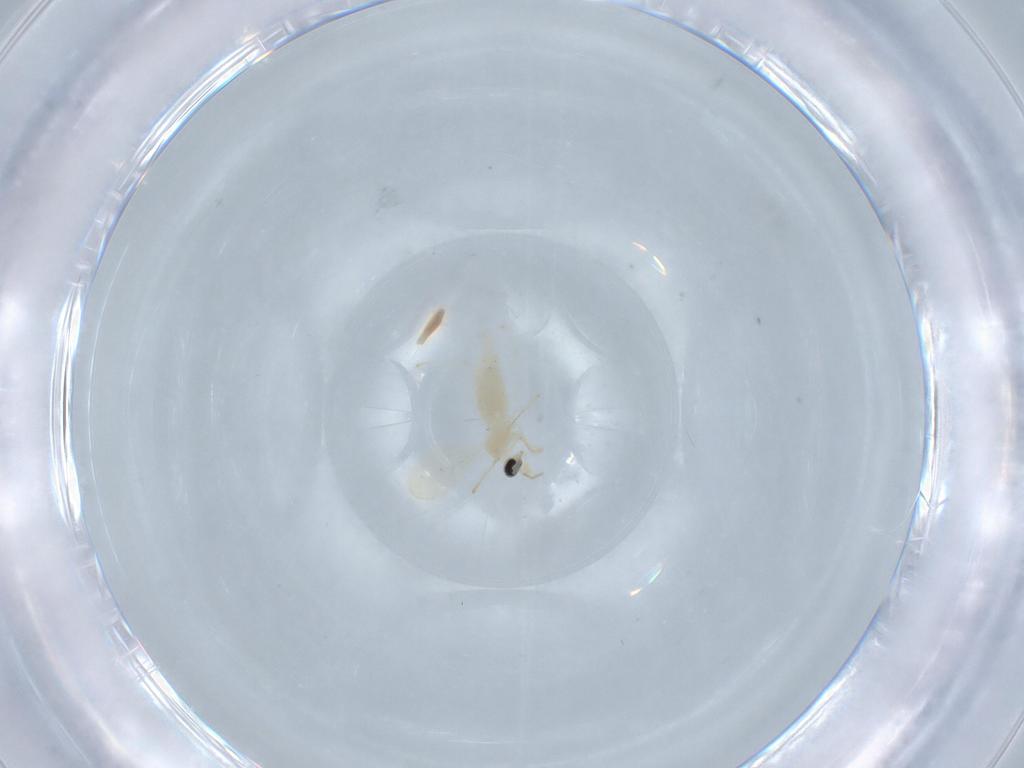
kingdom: Animalia
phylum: Arthropoda
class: Insecta
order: Diptera
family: Cecidomyiidae
